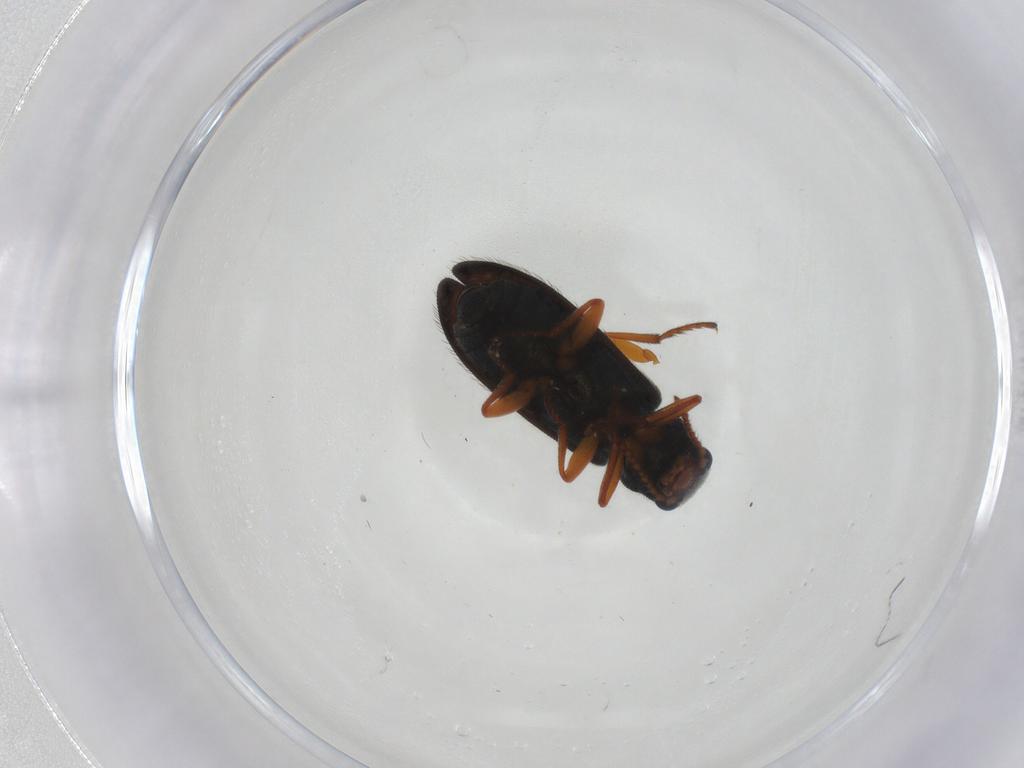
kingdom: Animalia
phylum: Arthropoda
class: Insecta
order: Coleoptera
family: Melyridae
